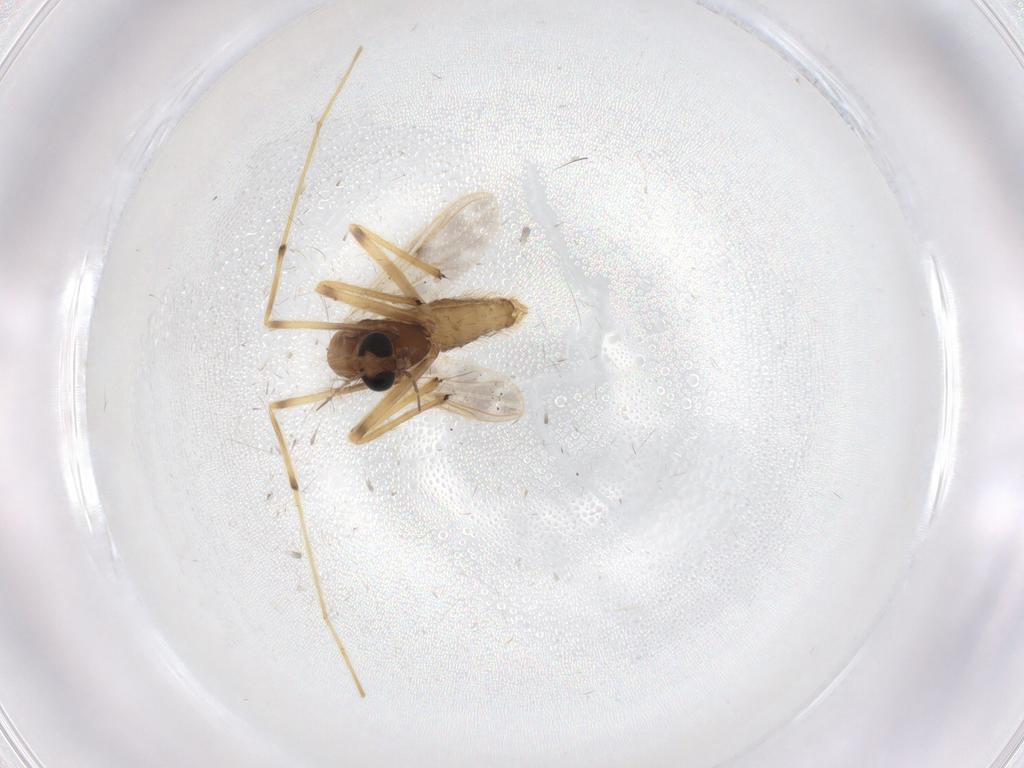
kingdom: Animalia
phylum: Arthropoda
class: Insecta
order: Diptera
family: Chironomidae
